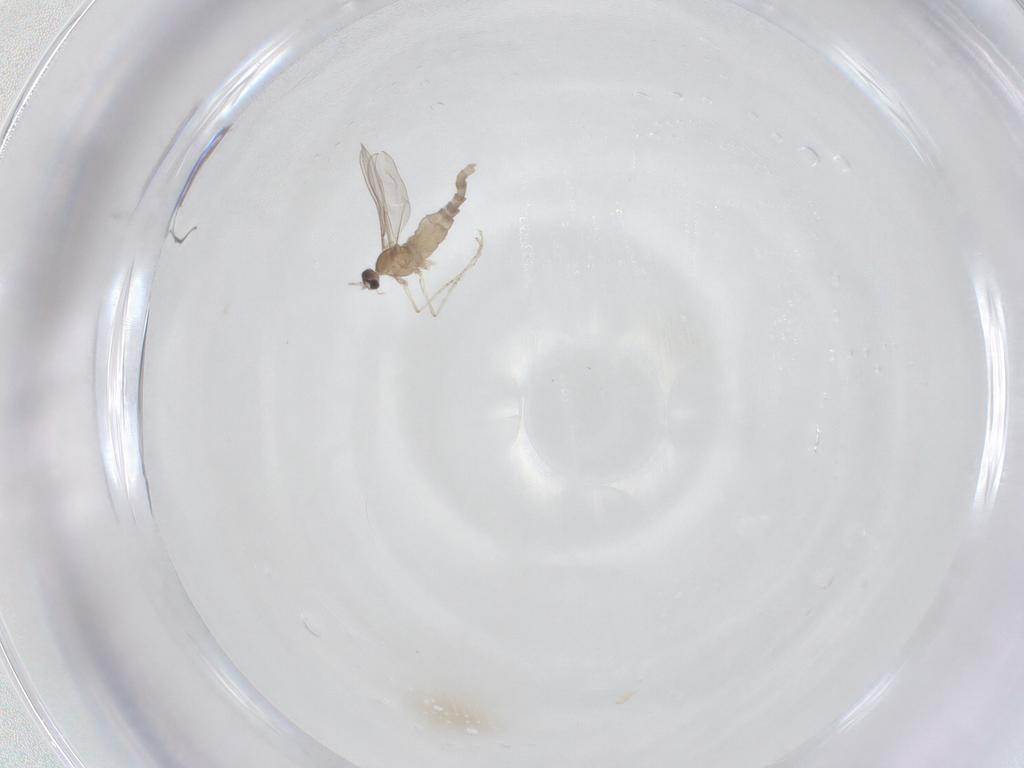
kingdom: Animalia
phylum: Arthropoda
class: Insecta
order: Diptera
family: Cecidomyiidae
